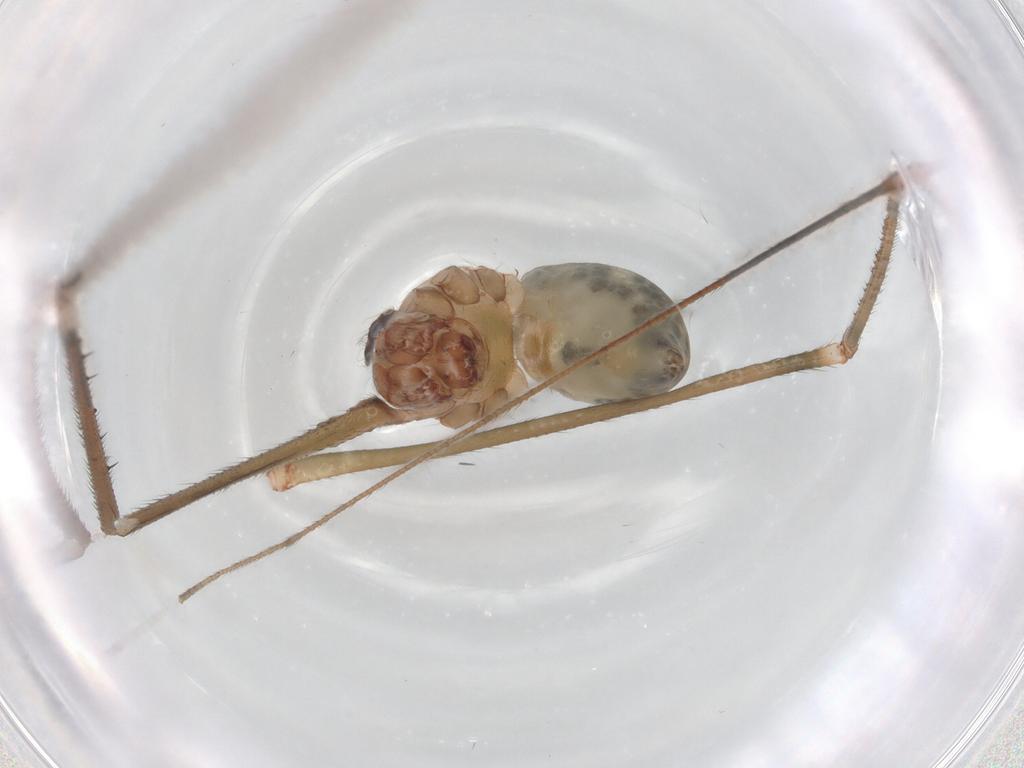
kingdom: Animalia
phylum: Arthropoda
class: Arachnida
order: Araneae
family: Pholcidae
